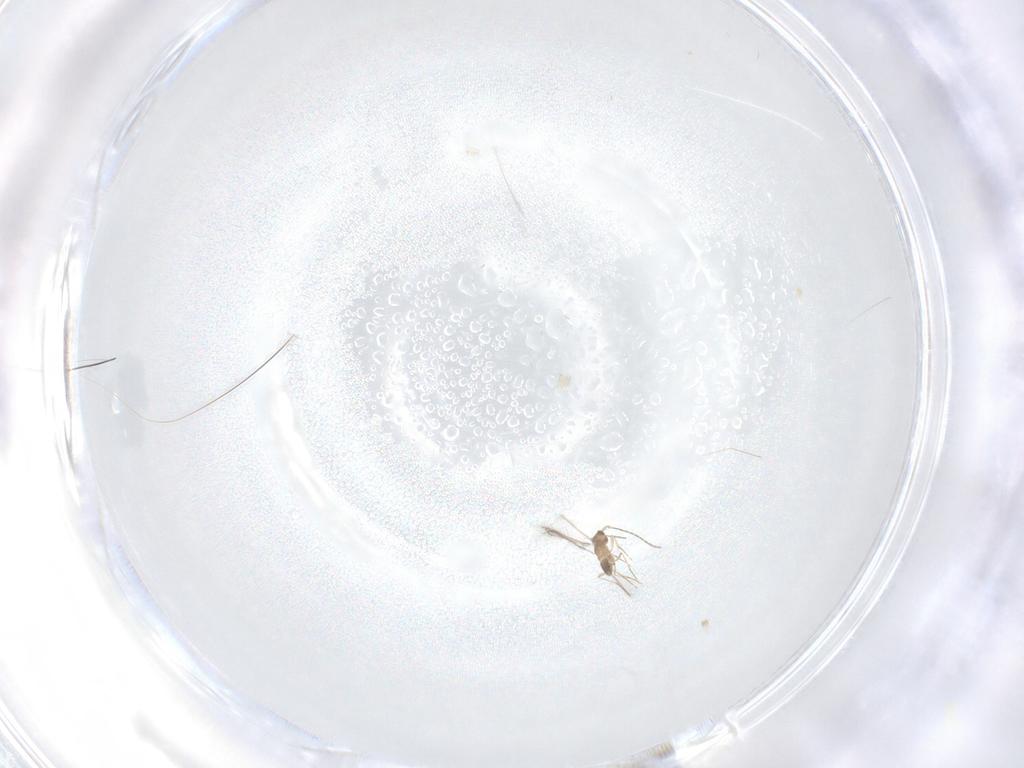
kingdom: Animalia
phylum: Arthropoda
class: Insecta
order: Hymenoptera
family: Mymaridae
